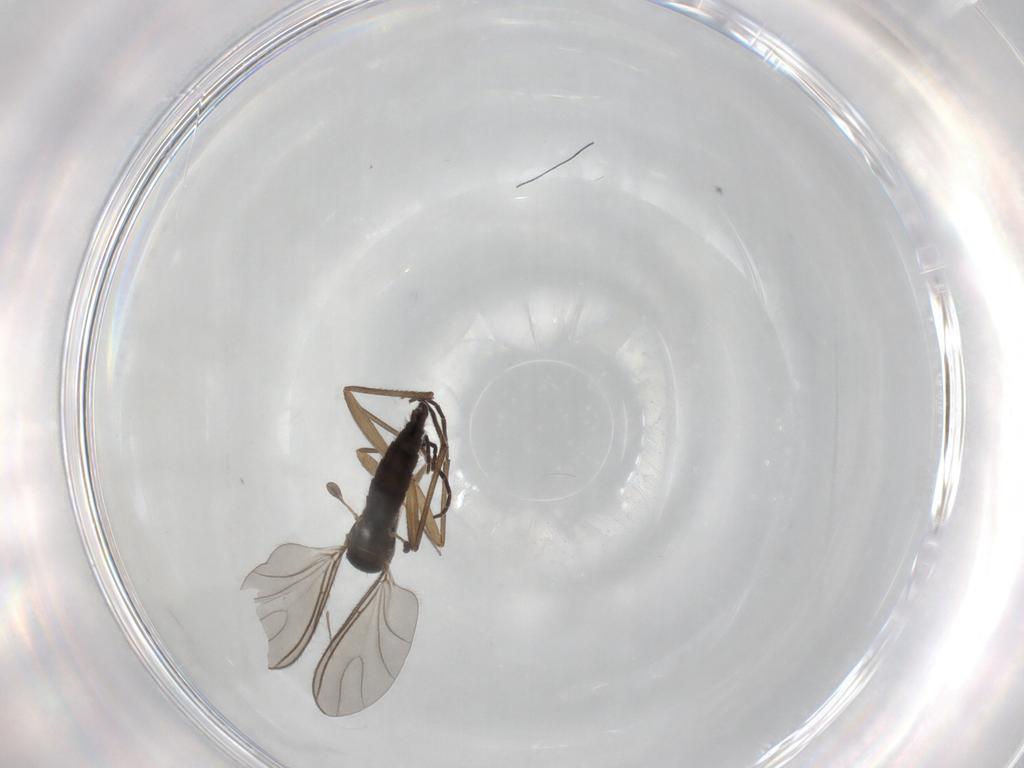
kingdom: Animalia
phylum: Arthropoda
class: Insecta
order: Diptera
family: Sciaridae
